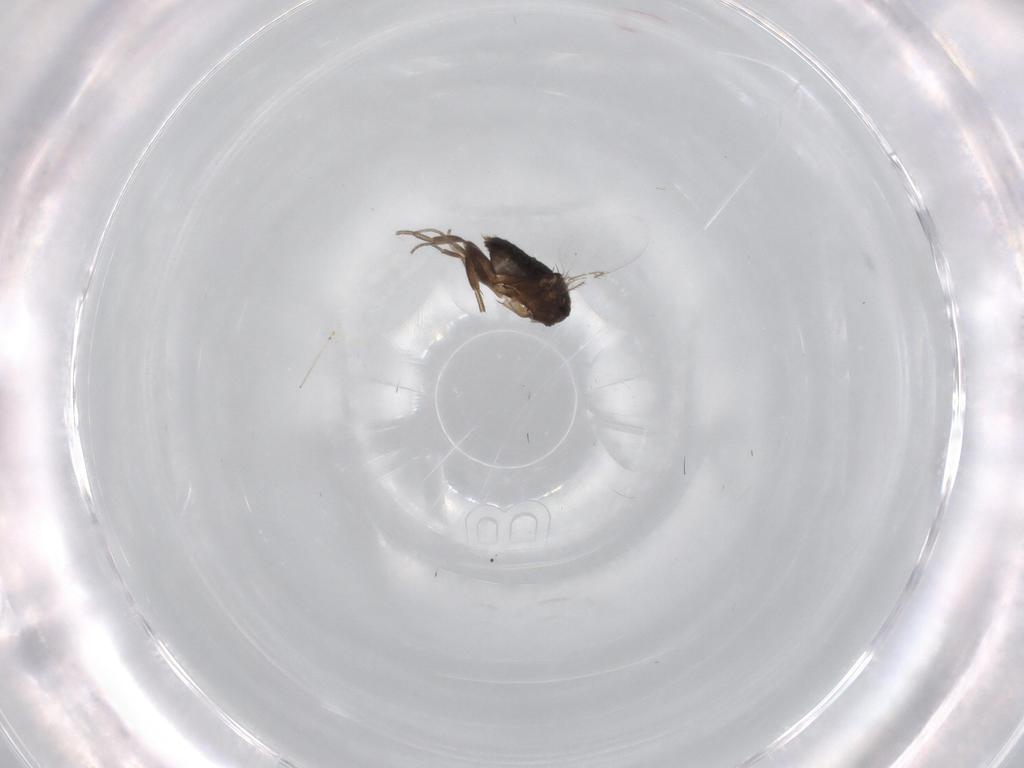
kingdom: Animalia
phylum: Arthropoda
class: Insecta
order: Diptera
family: Phoridae
